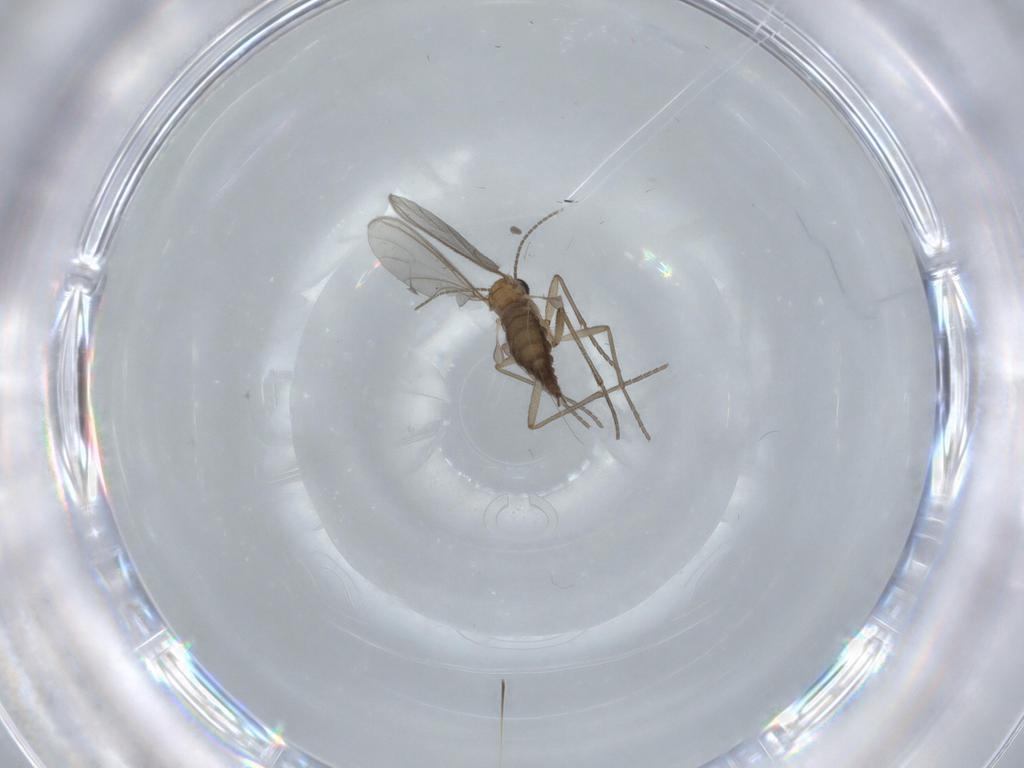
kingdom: Animalia
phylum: Arthropoda
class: Insecta
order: Diptera
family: Sciaridae
